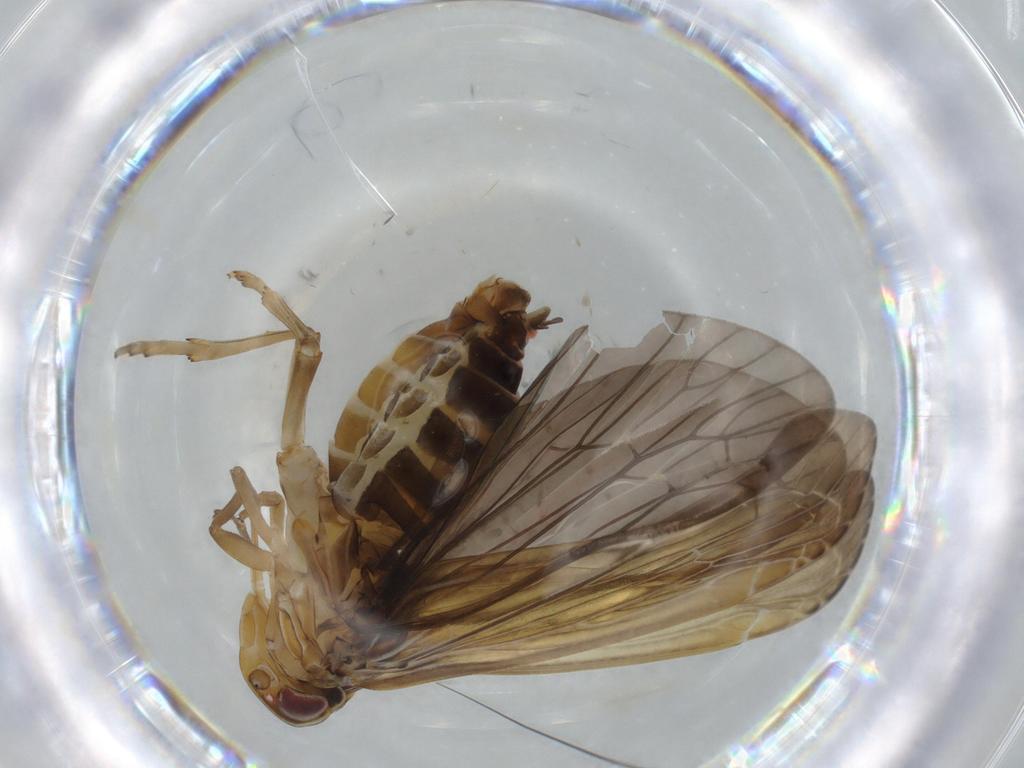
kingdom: Animalia
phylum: Arthropoda
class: Insecta
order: Hemiptera
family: Achilidae
